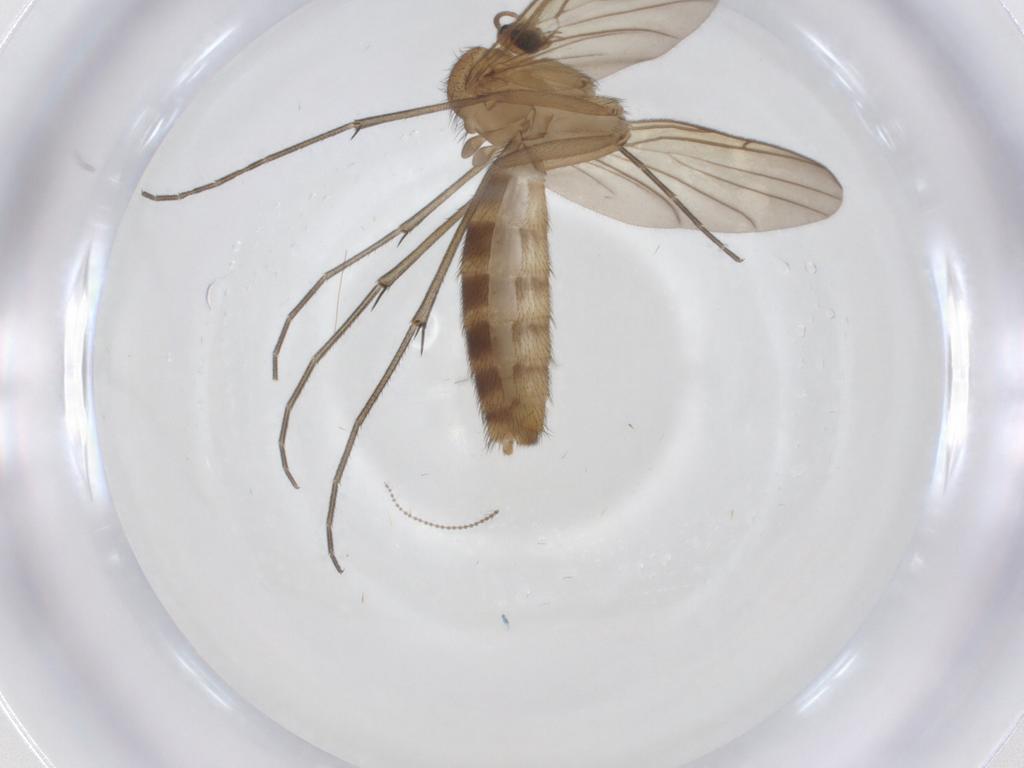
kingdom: Animalia
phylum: Arthropoda
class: Insecta
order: Diptera
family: Keroplatidae
